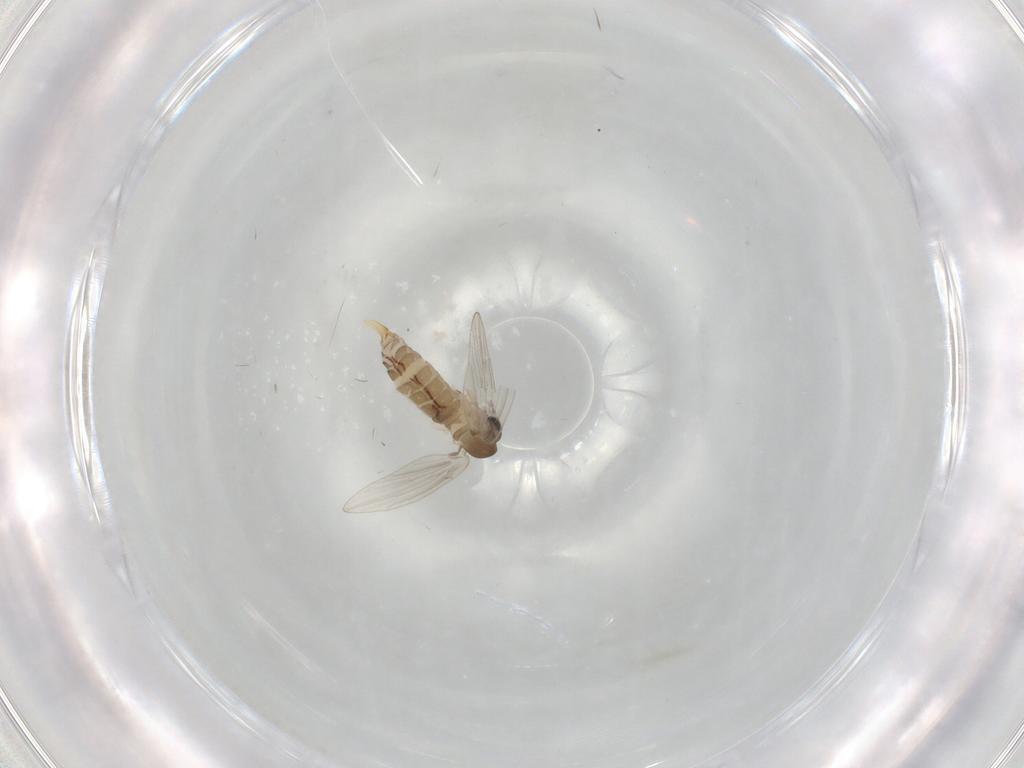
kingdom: Animalia
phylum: Arthropoda
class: Insecta
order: Diptera
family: Psychodidae
